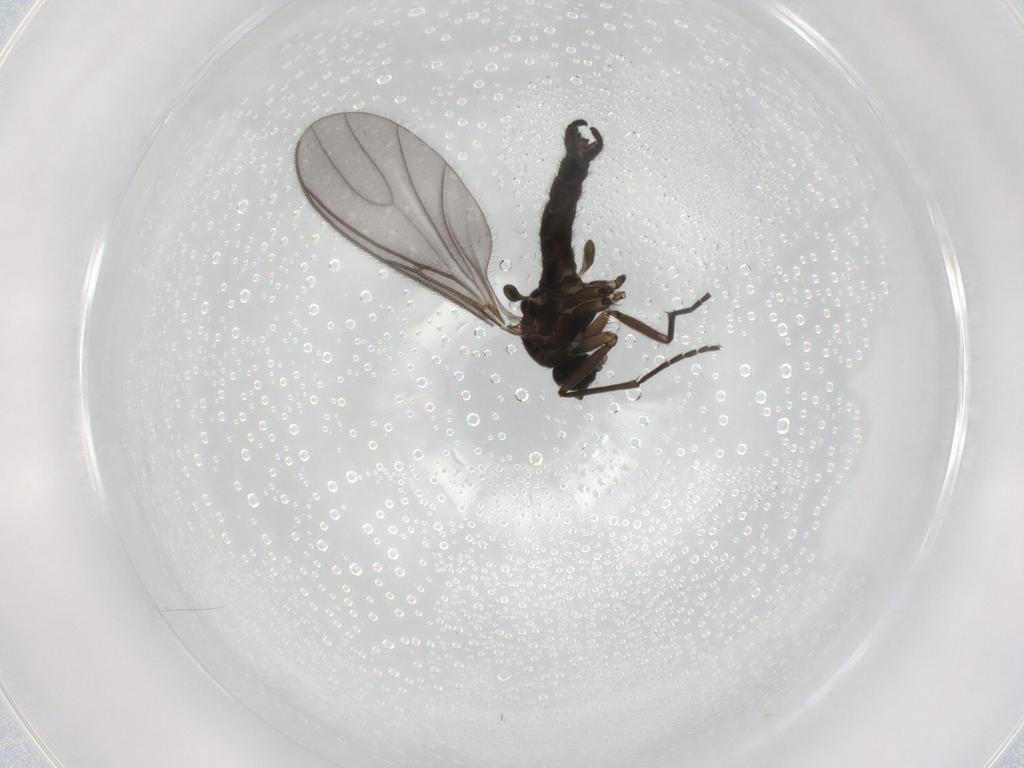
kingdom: Animalia
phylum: Arthropoda
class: Insecta
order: Diptera
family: Sciaridae
